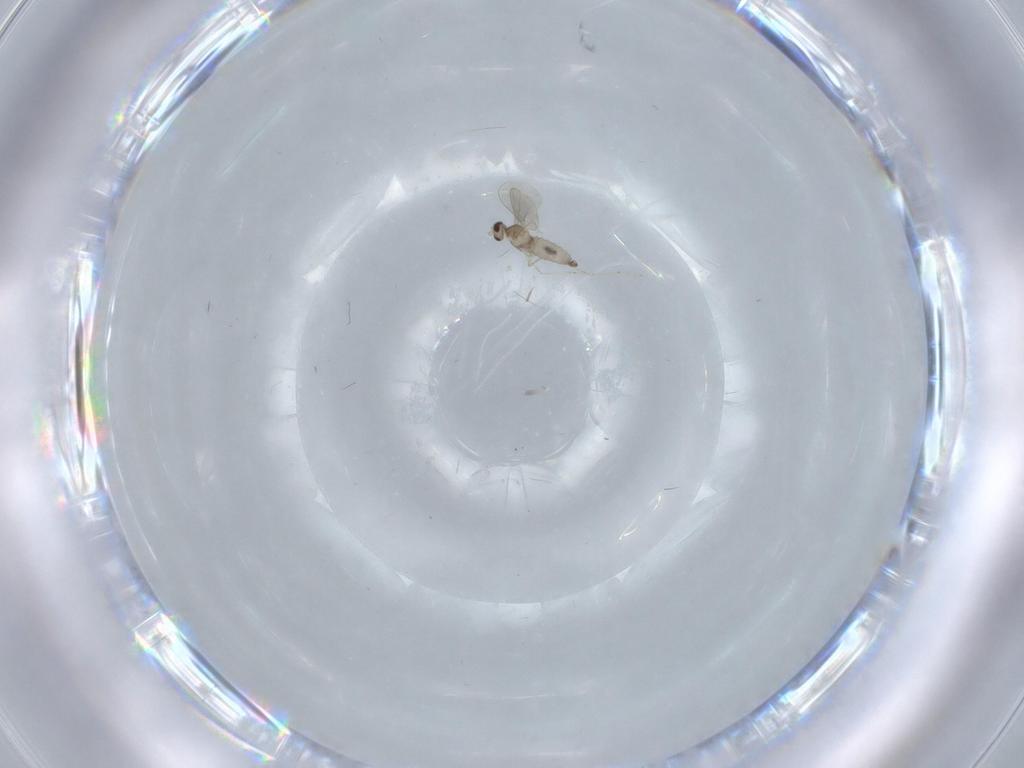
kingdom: Animalia
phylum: Arthropoda
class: Insecta
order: Diptera
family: Cecidomyiidae
